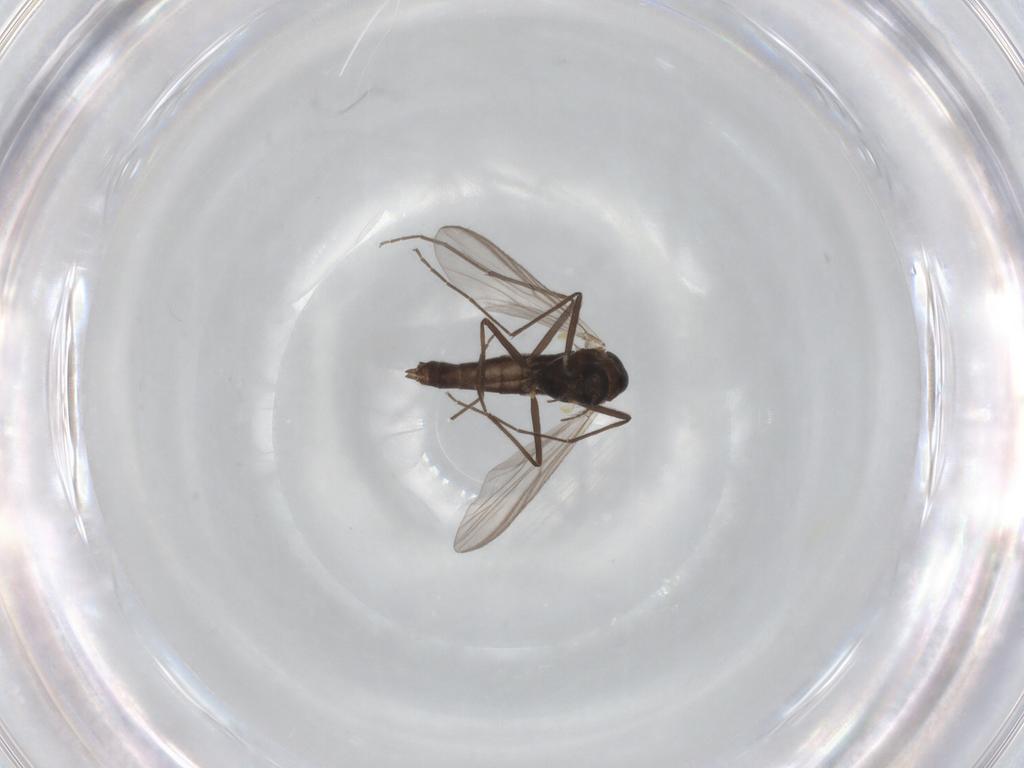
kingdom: Animalia
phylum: Arthropoda
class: Insecta
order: Diptera
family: Chironomidae
